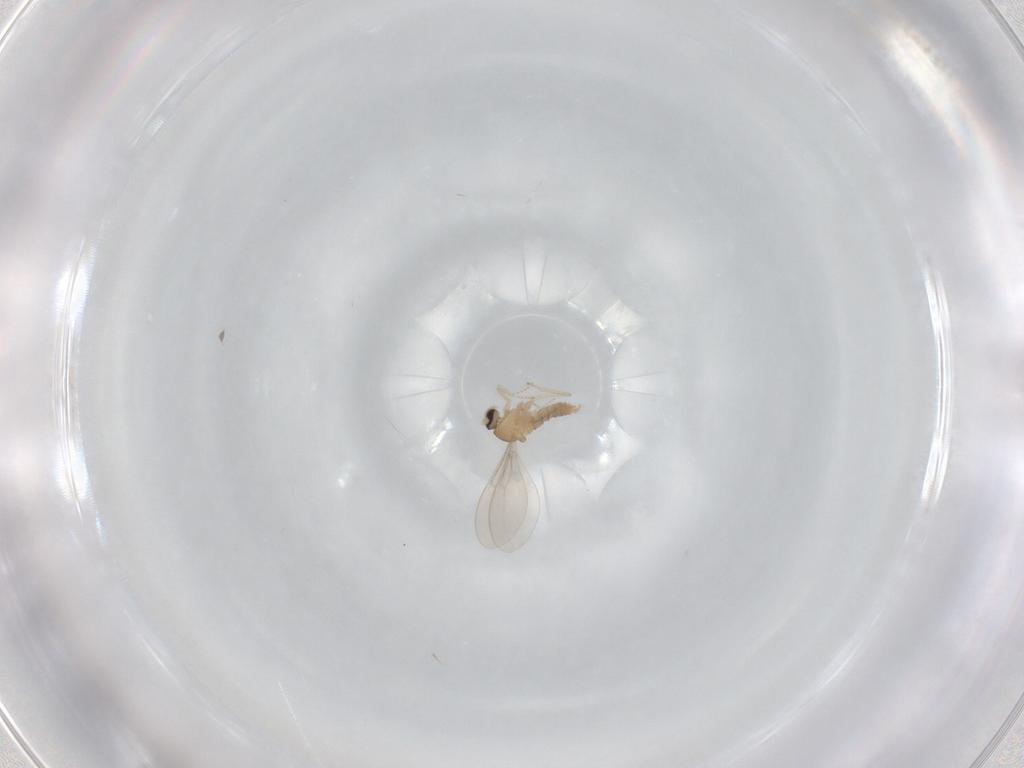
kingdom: Animalia
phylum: Arthropoda
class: Insecta
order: Diptera
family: Cecidomyiidae
